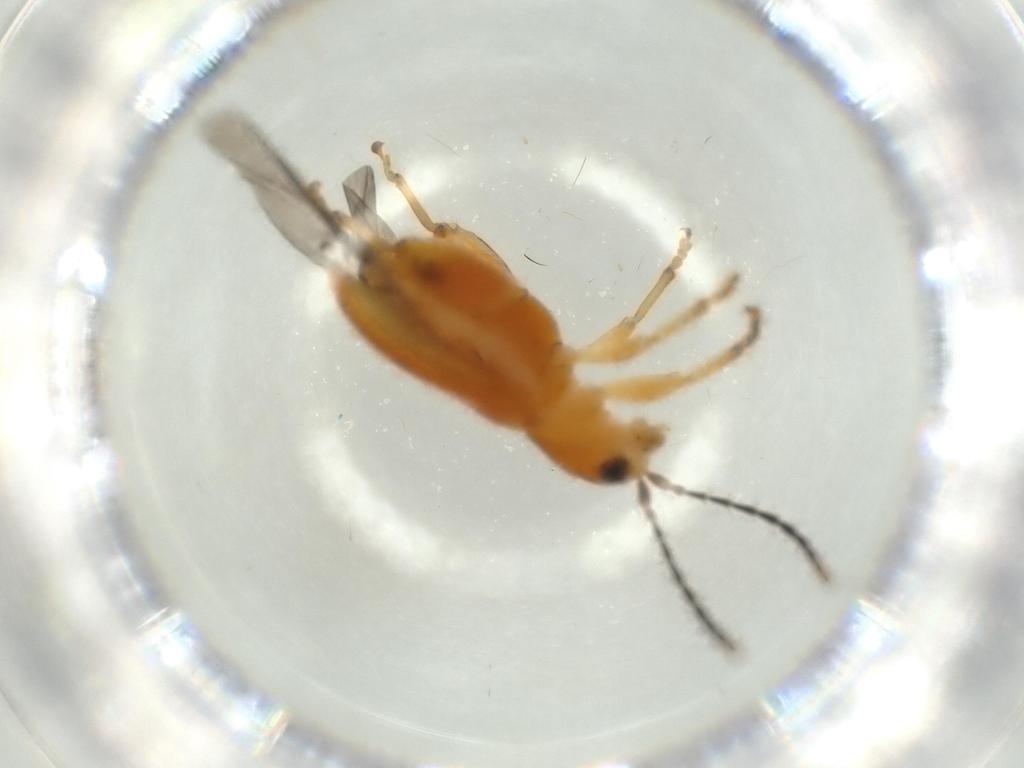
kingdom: Animalia
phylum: Arthropoda
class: Insecta
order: Coleoptera
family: Chrysomelidae
